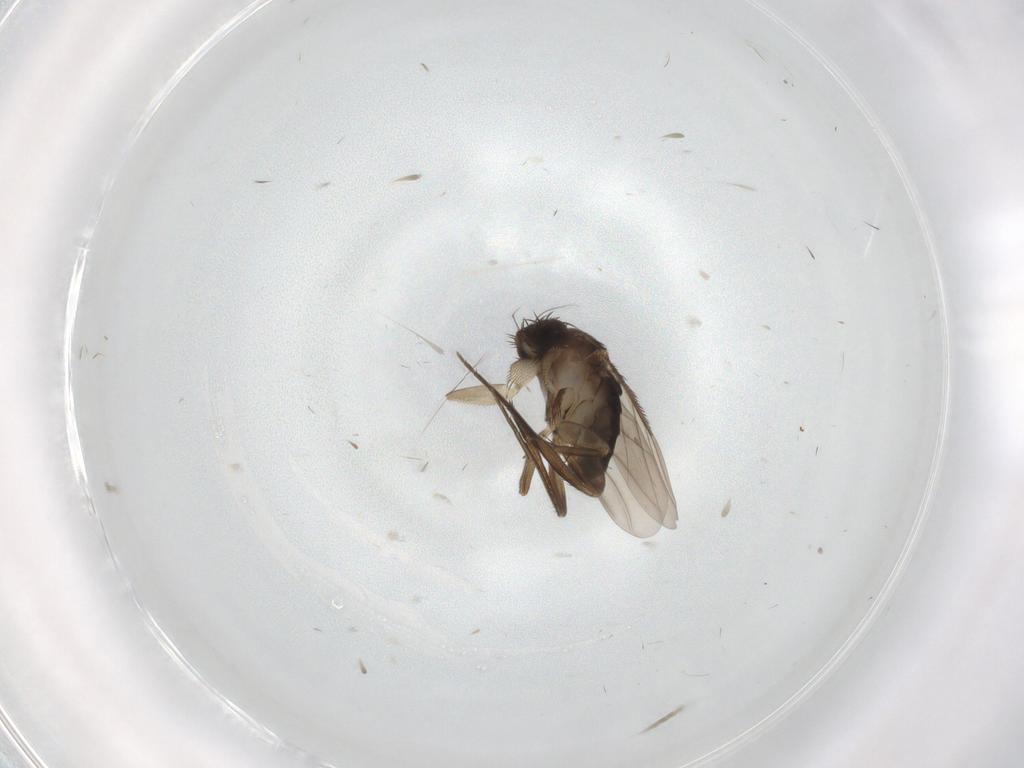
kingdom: Animalia
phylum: Arthropoda
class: Insecta
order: Diptera
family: Phoridae
